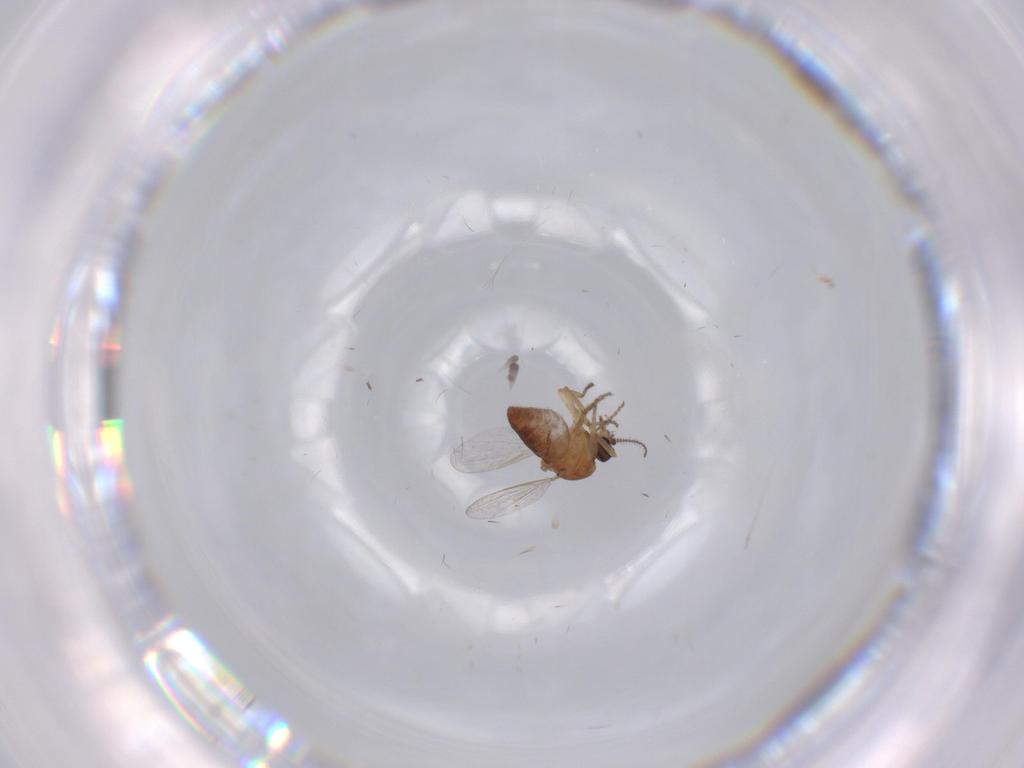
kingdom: Animalia
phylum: Arthropoda
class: Insecta
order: Diptera
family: Ceratopogonidae
